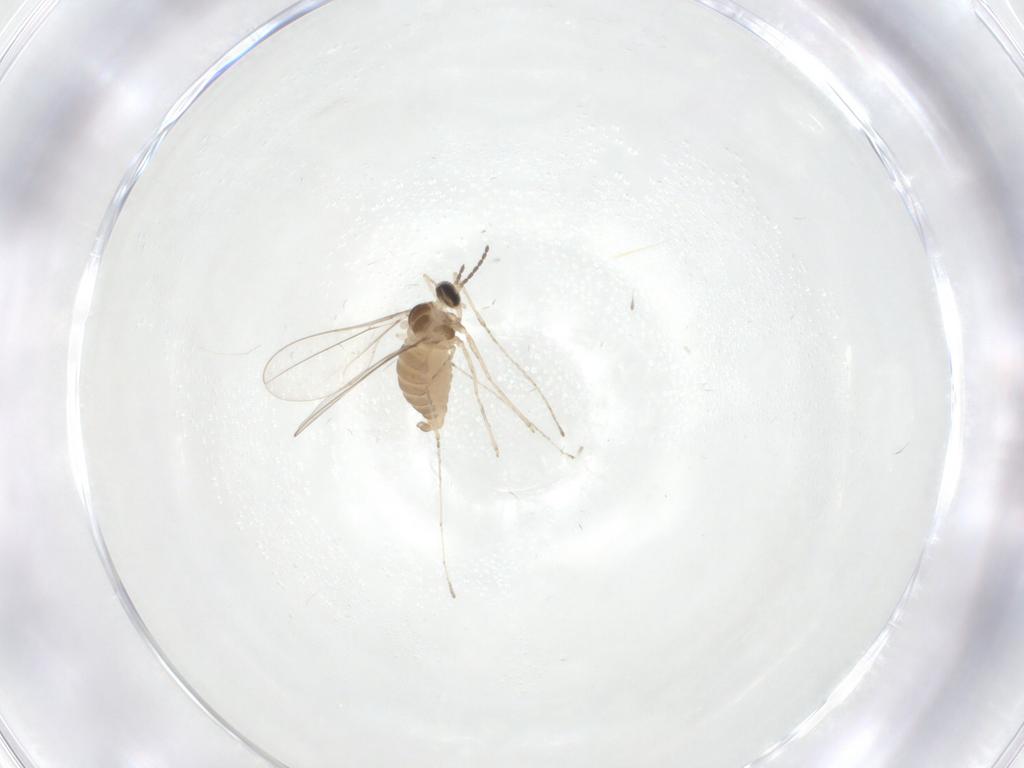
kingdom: Animalia
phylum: Arthropoda
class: Insecta
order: Diptera
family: Cecidomyiidae
